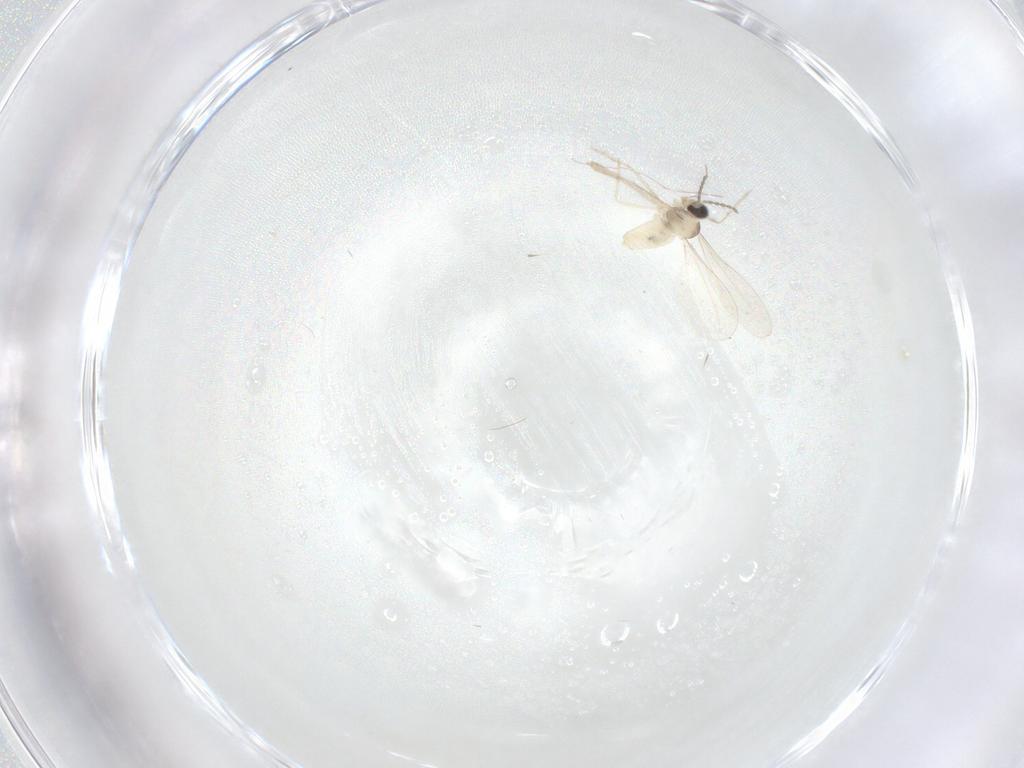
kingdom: Animalia
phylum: Arthropoda
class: Insecta
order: Diptera
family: Cecidomyiidae
